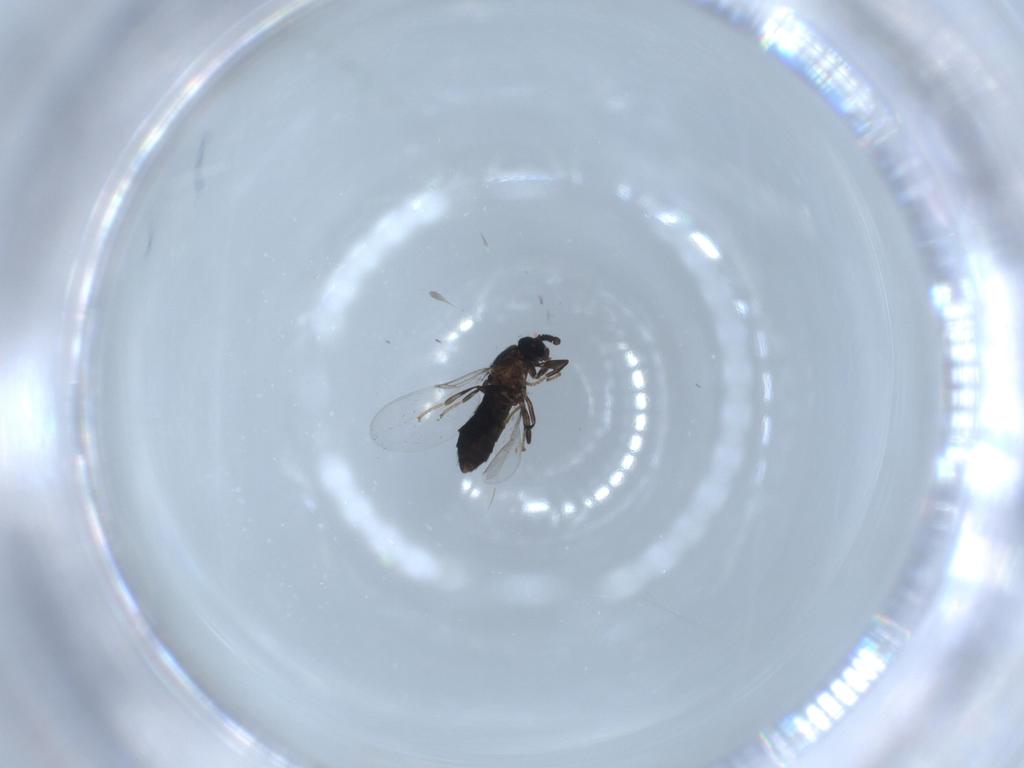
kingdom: Animalia
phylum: Arthropoda
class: Insecta
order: Diptera
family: Scatopsidae
